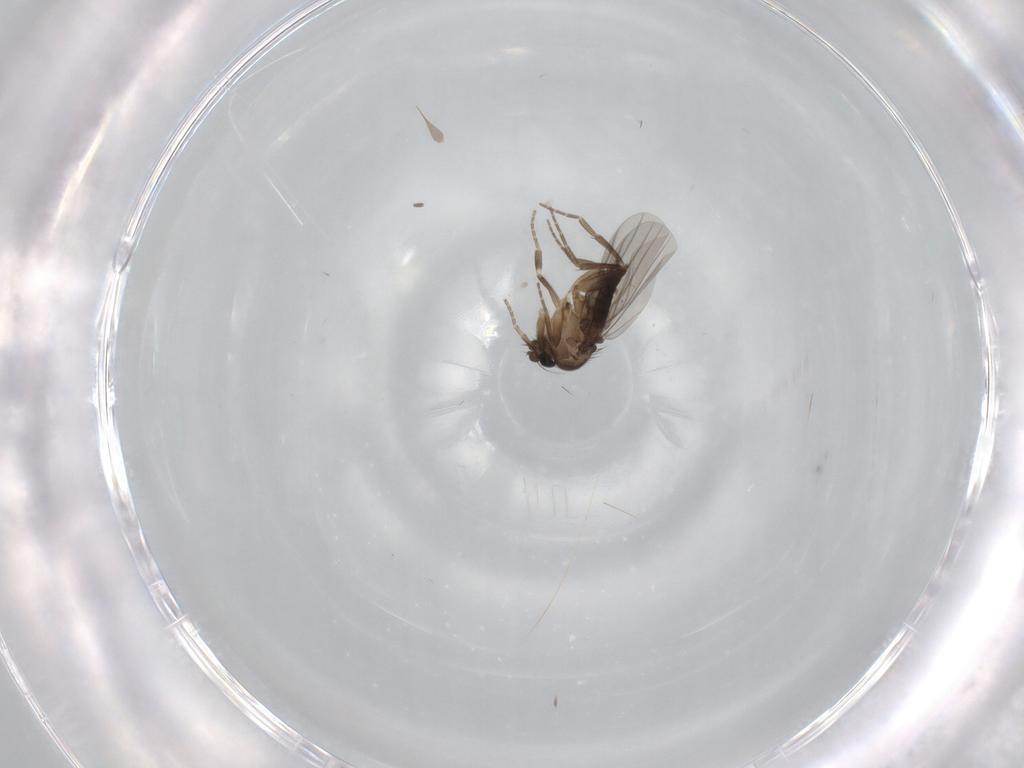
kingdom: Animalia
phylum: Arthropoda
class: Insecta
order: Diptera
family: Phoridae
